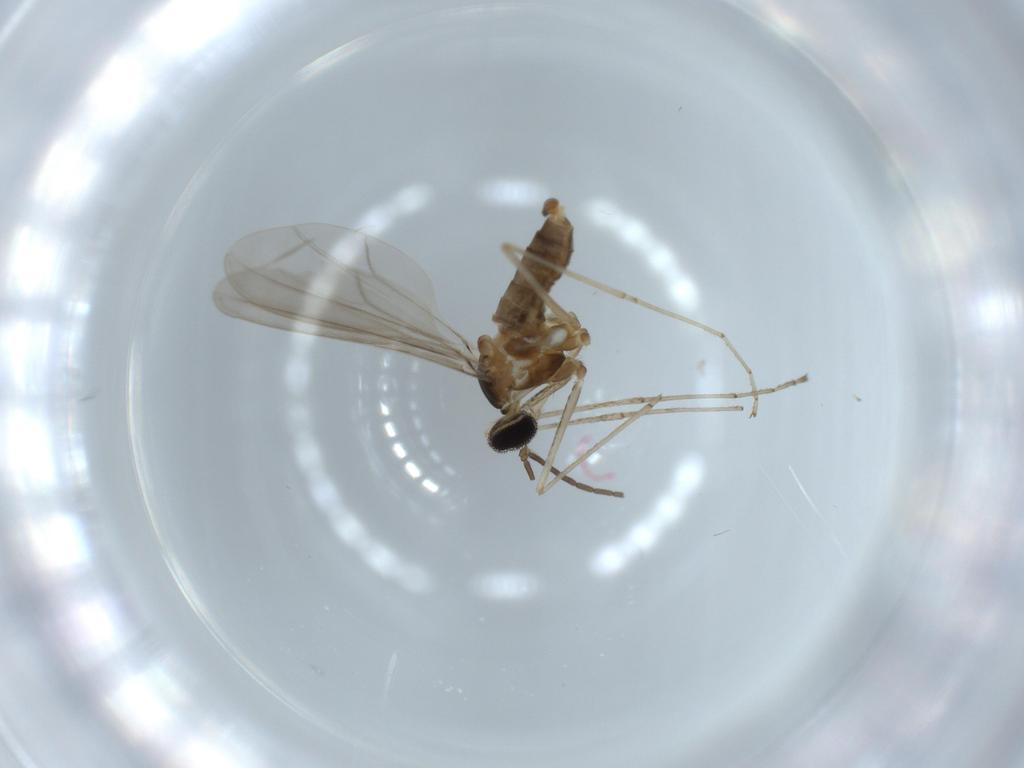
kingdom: Animalia
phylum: Arthropoda
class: Insecta
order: Diptera
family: Cecidomyiidae
